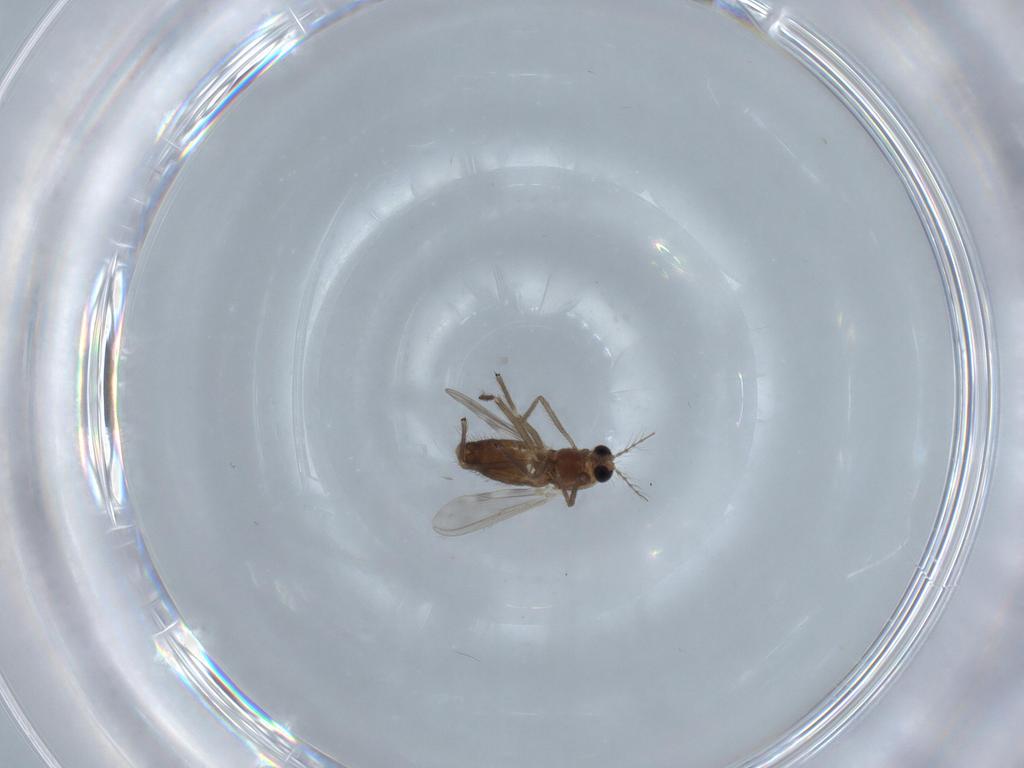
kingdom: Animalia
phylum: Arthropoda
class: Insecta
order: Diptera
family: Chironomidae
